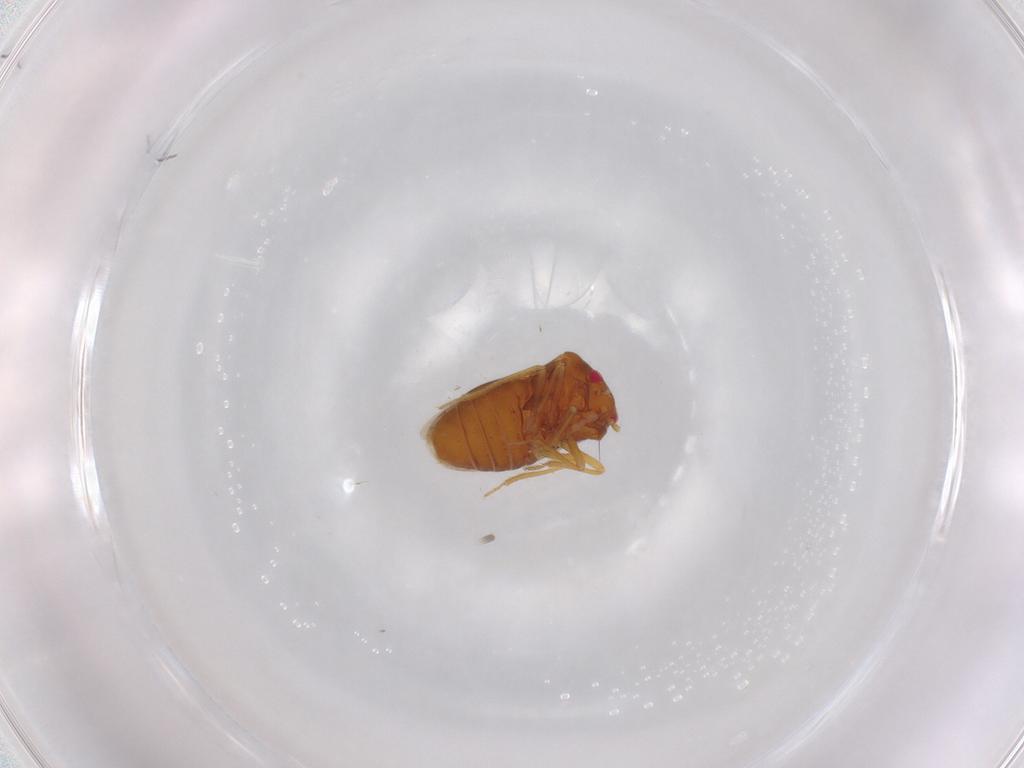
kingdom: Animalia
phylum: Arthropoda
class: Insecta
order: Hemiptera
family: Schizopteridae
